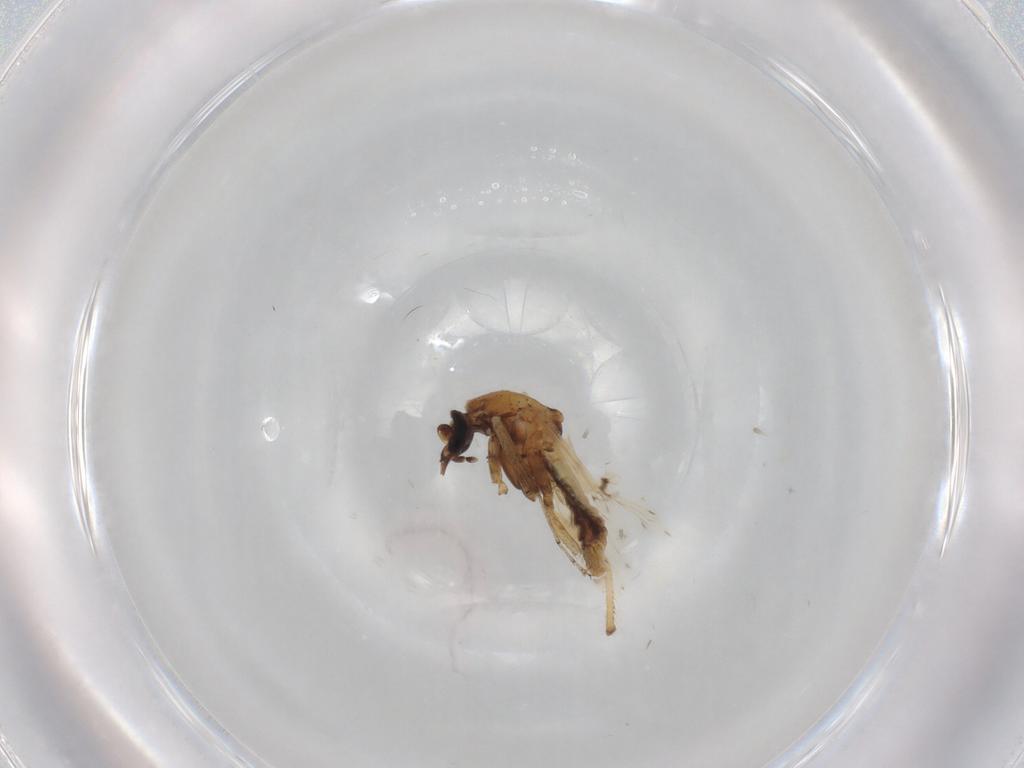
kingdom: Animalia
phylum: Arthropoda
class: Insecta
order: Diptera
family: Ceratopogonidae
